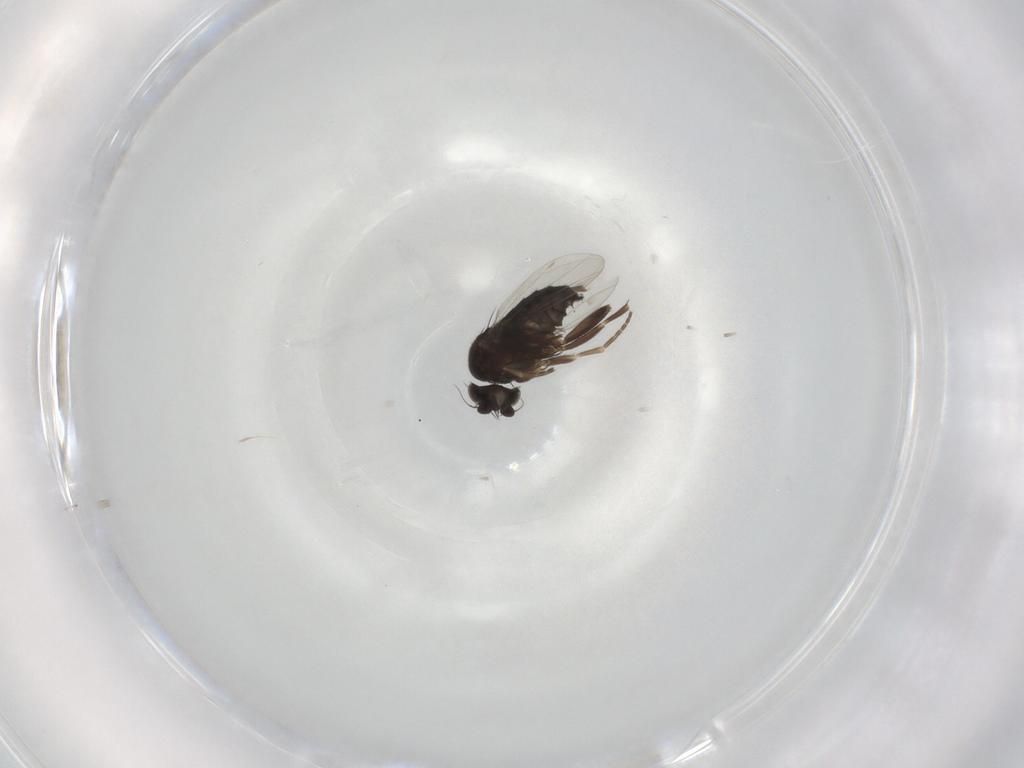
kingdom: Animalia
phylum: Arthropoda
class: Insecta
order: Diptera
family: Phoridae
